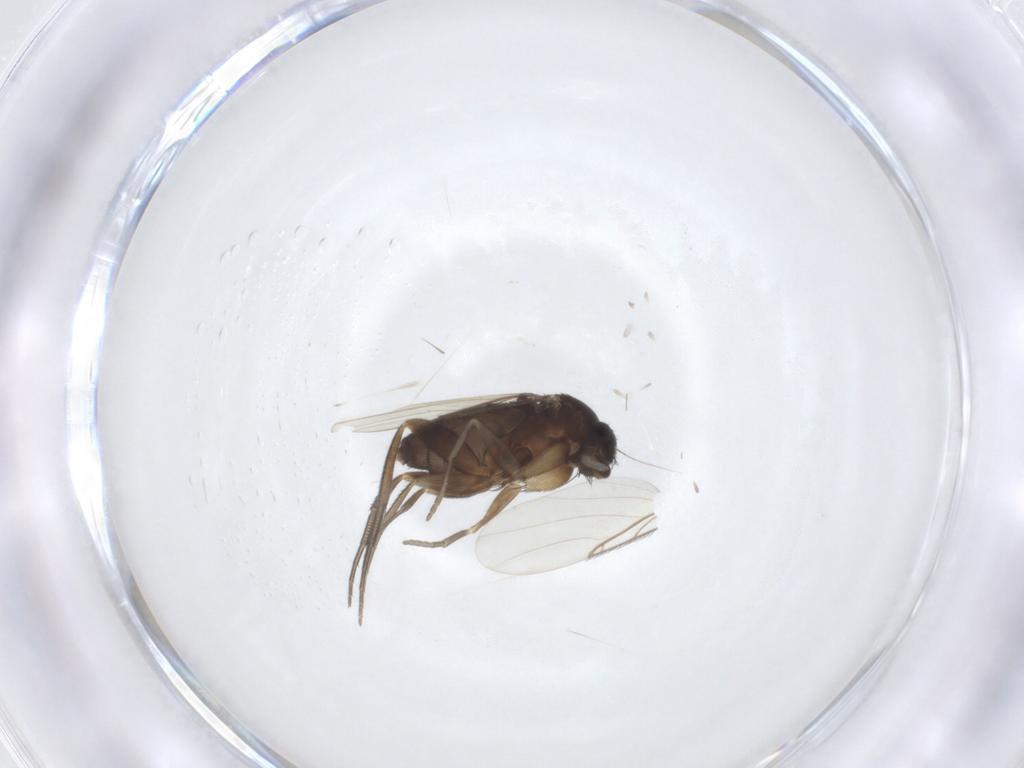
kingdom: Animalia
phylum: Arthropoda
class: Insecta
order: Diptera
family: Phoridae
